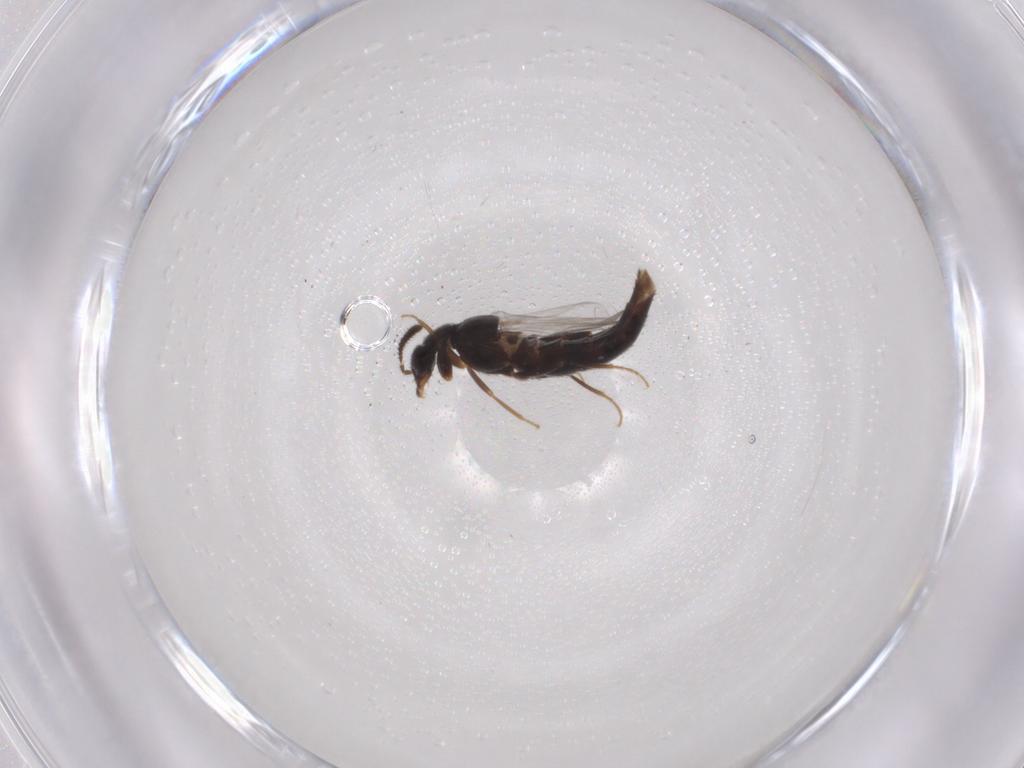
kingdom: Animalia
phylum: Arthropoda
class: Insecta
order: Coleoptera
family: Staphylinidae
